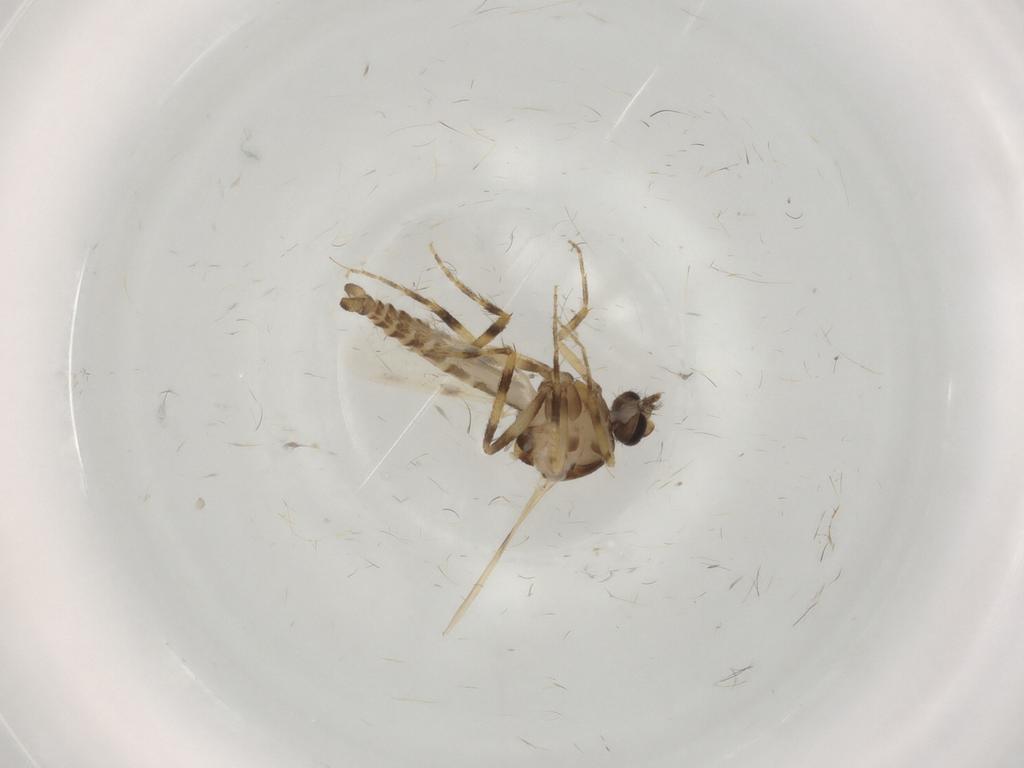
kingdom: Animalia
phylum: Arthropoda
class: Insecta
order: Diptera
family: Ceratopogonidae
